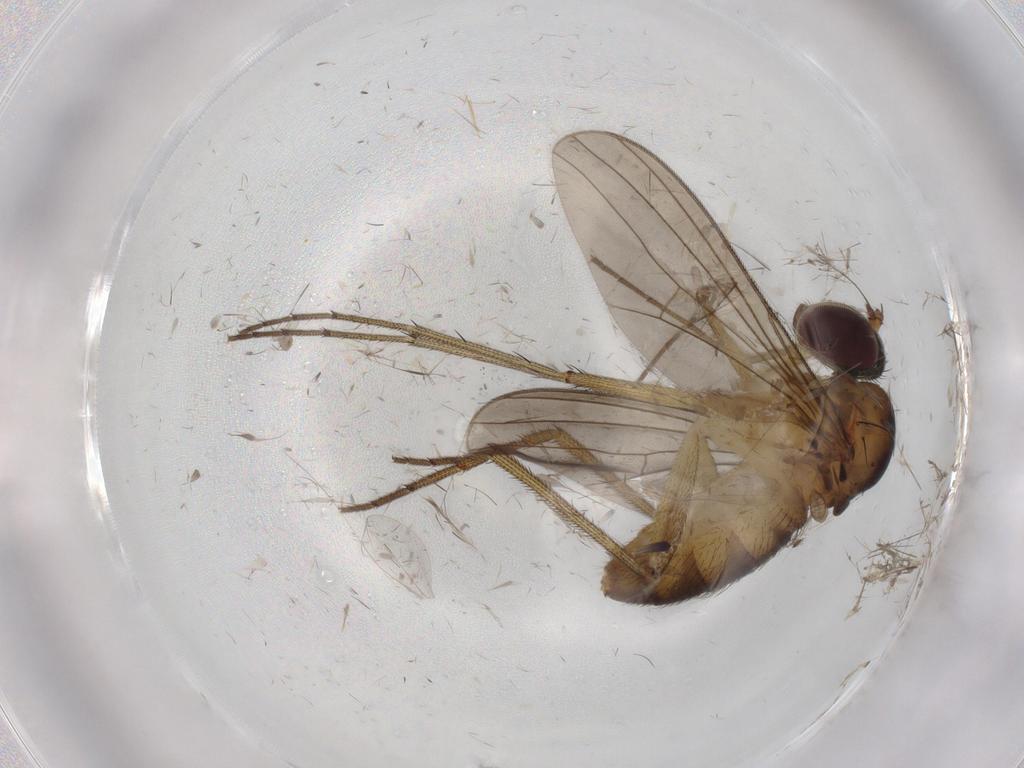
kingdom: Animalia
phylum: Arthropoda
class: Insecta
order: Diptera
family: Dolichopodidae
